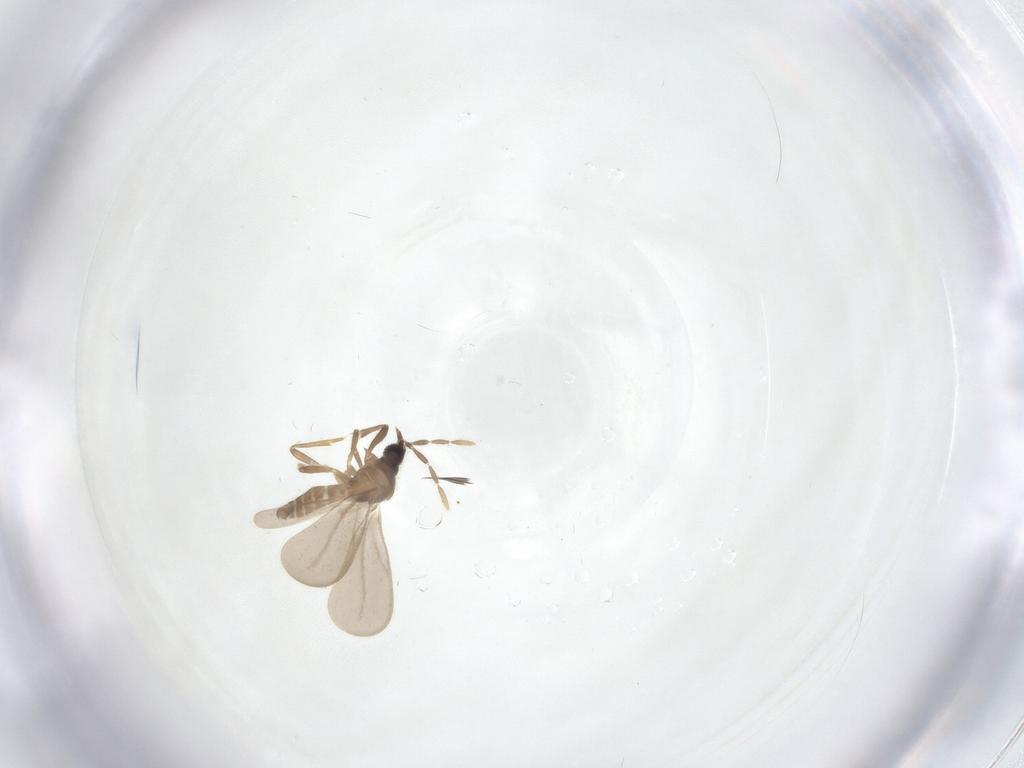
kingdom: Animalia
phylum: Arthropoda
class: Insecta
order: Hemiptera
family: Enicocephalidae
